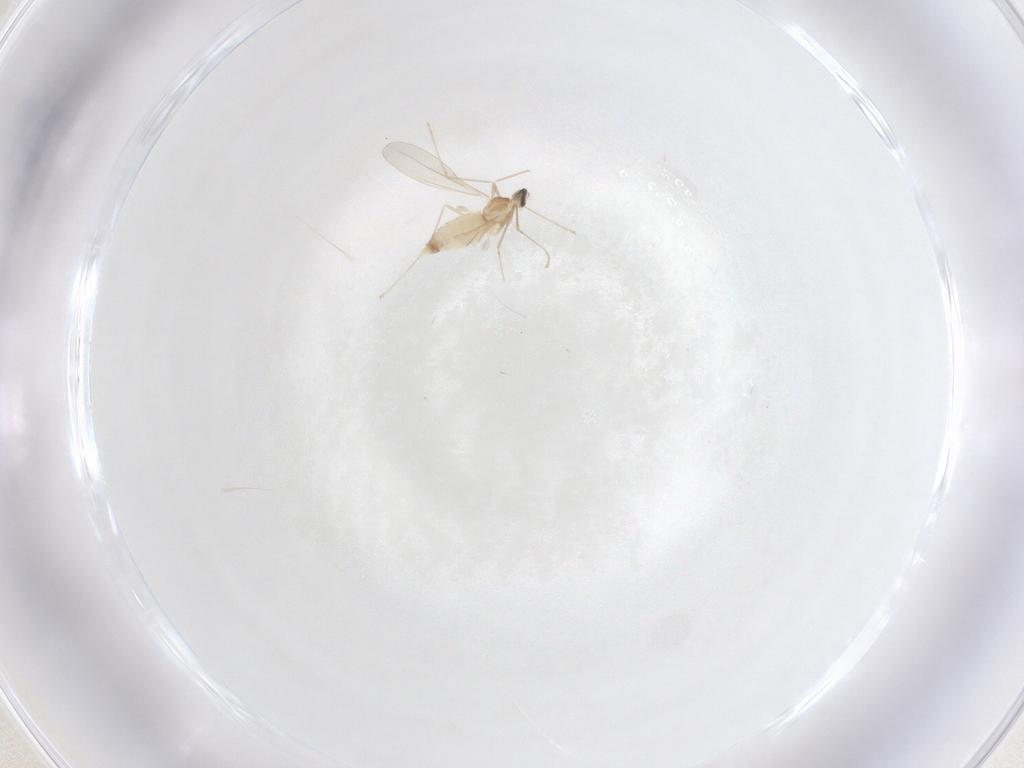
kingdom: Animalia
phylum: Arthropoda
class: Insecta
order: Diptera
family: Cecidomyiidae
